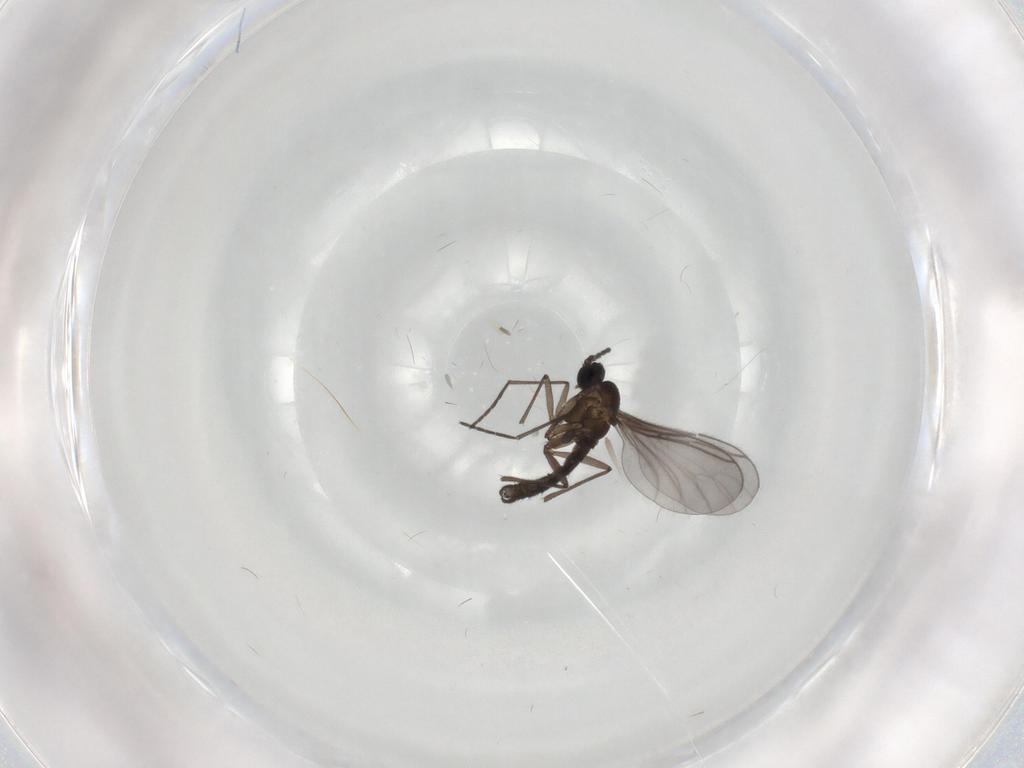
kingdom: Animalia
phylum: Arthropoda
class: Insecta
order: Diptera
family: Sciaridae
